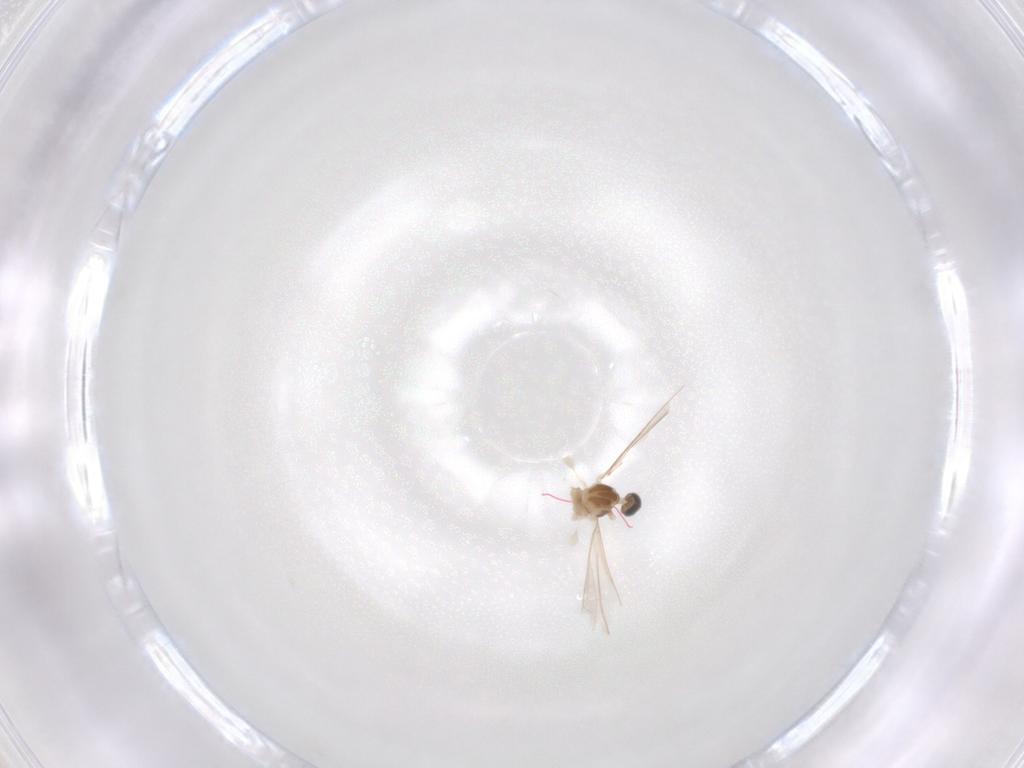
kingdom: Animalia
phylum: Arthropoda
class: Insecta
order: Diptera
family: Cecidomyiidae
